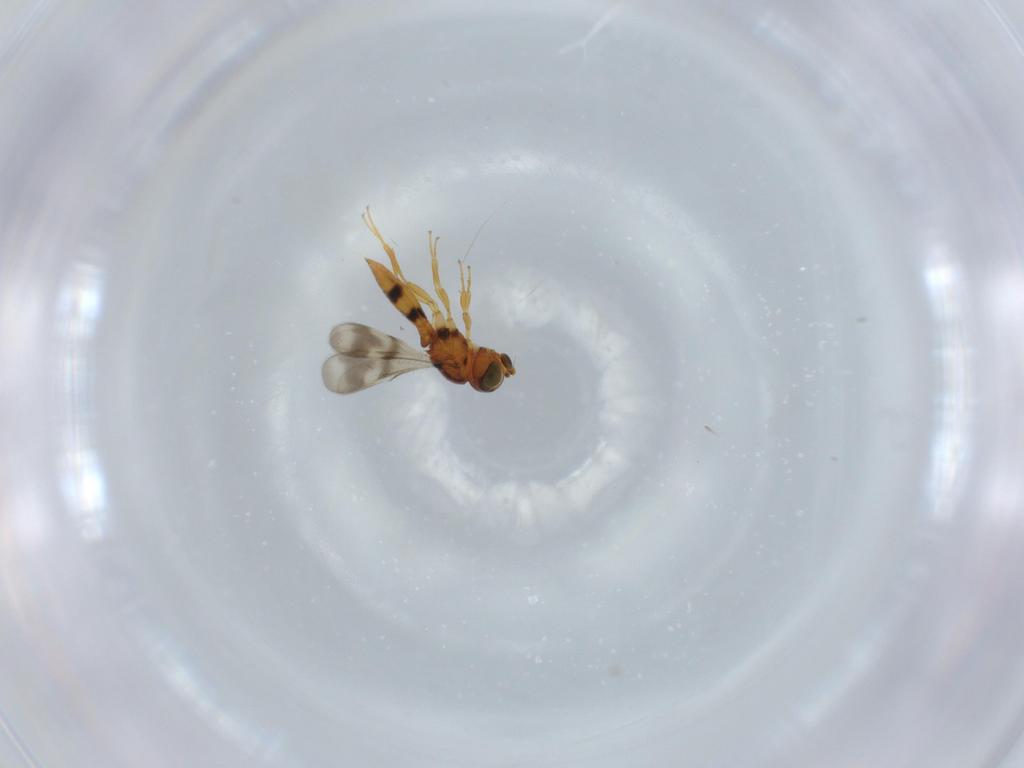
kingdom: Animalia
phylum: Arthropoda
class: Insecta
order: Hymenoptera
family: Scelionidae
